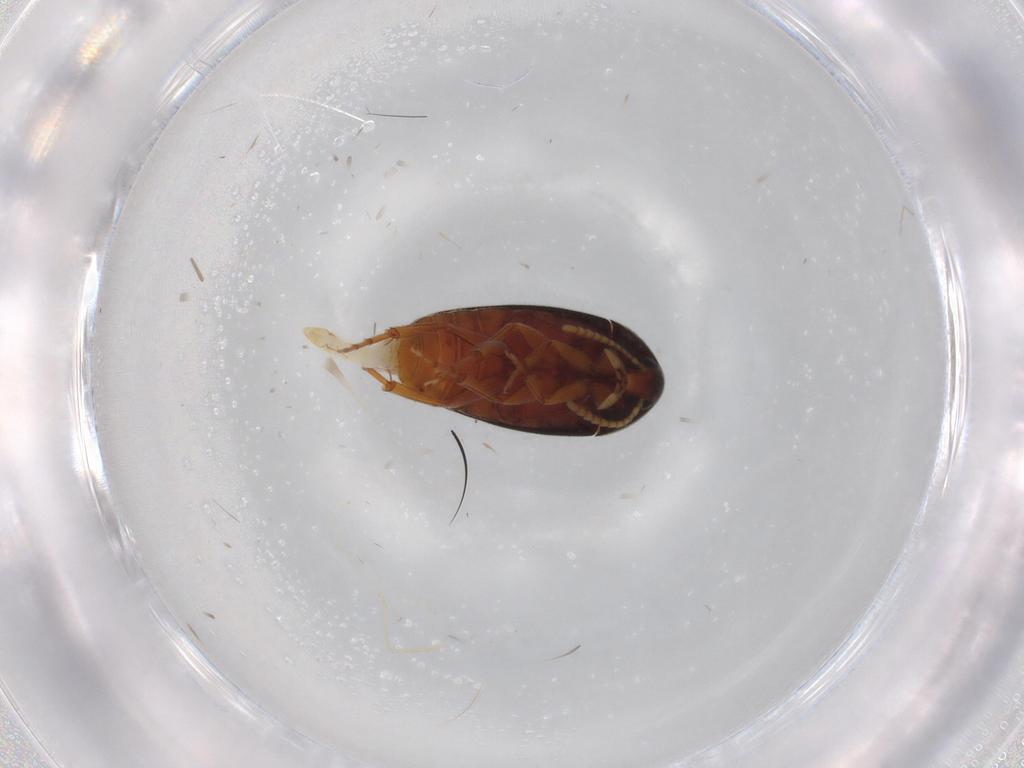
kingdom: Animalia
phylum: Arthropoda
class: Insecta
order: Coleoptera
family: Scraptiidae
